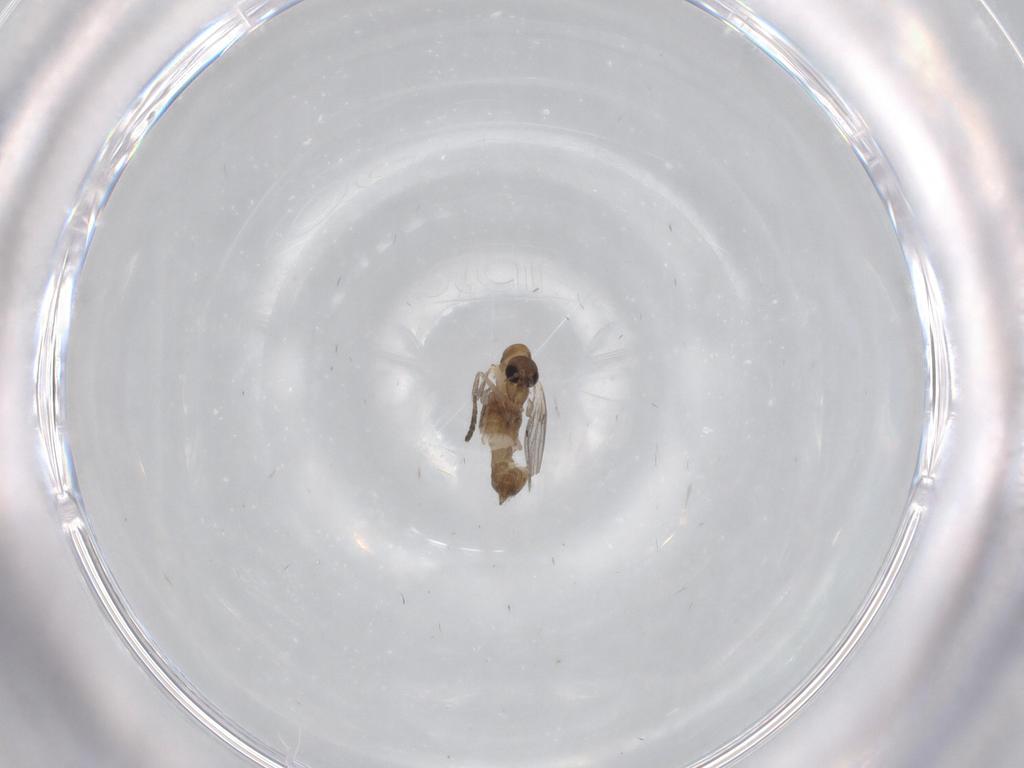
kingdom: Animalia
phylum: Arthropoda
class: Insecta
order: Diptera
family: Psychodidae
